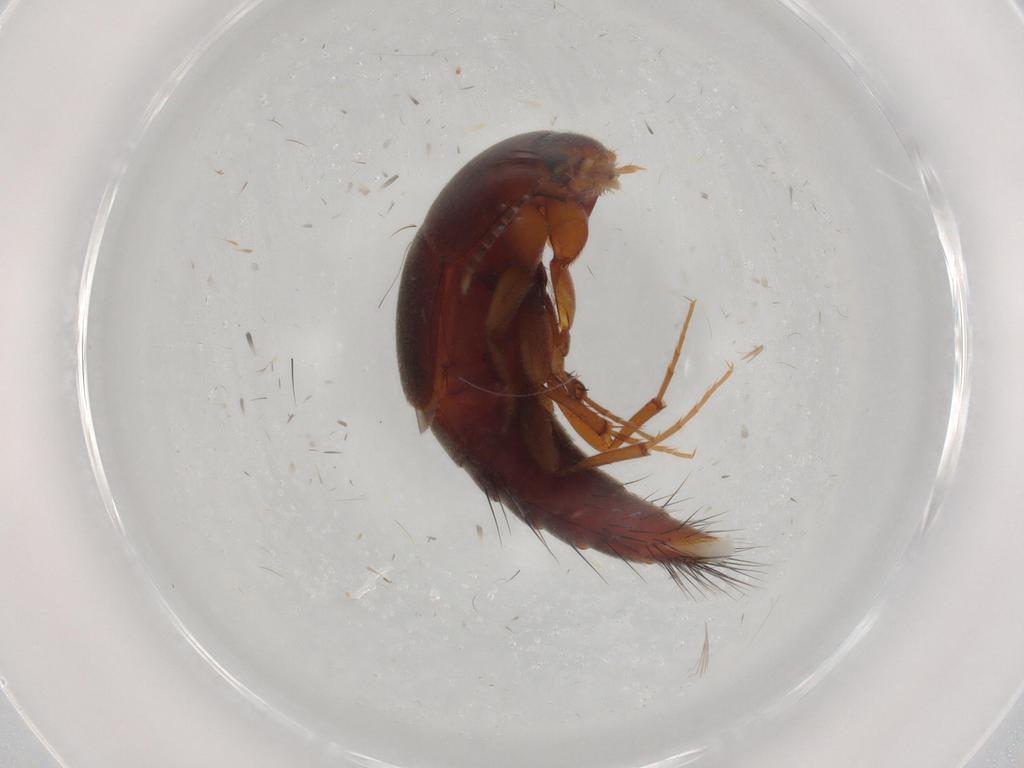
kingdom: Animalia
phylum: Arthropoda
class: Insecta
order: Coleoptera
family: Staphylinidae
